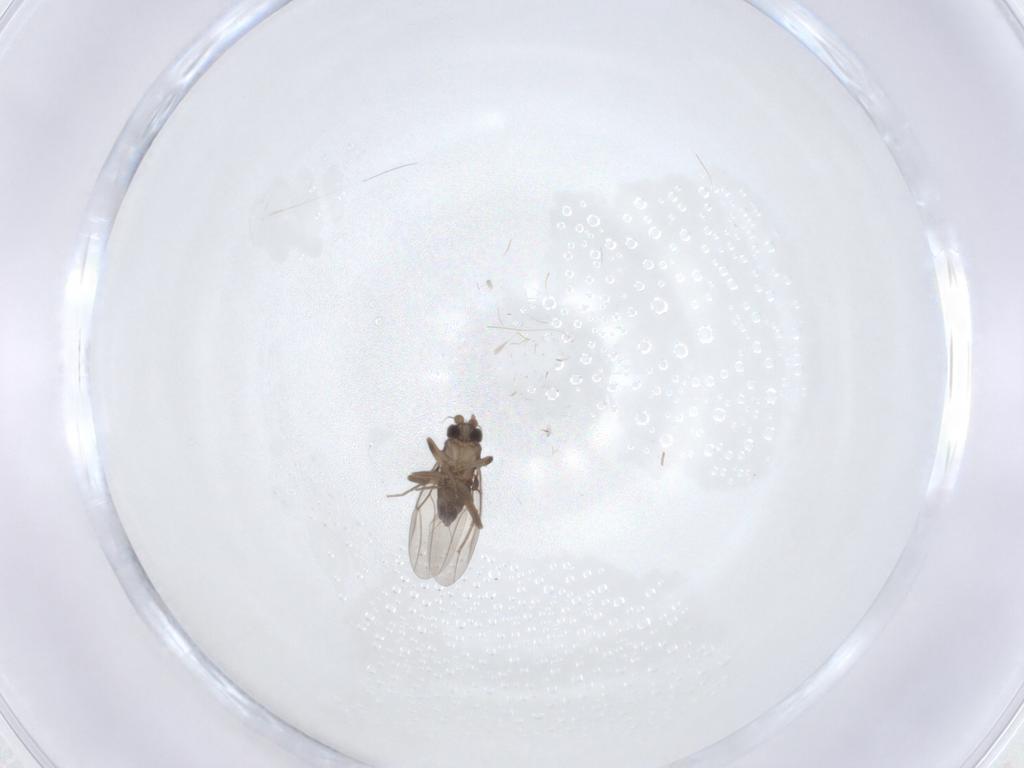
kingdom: Animalia
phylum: Arthropoda
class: Insecta
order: Diptera
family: Phoridae
